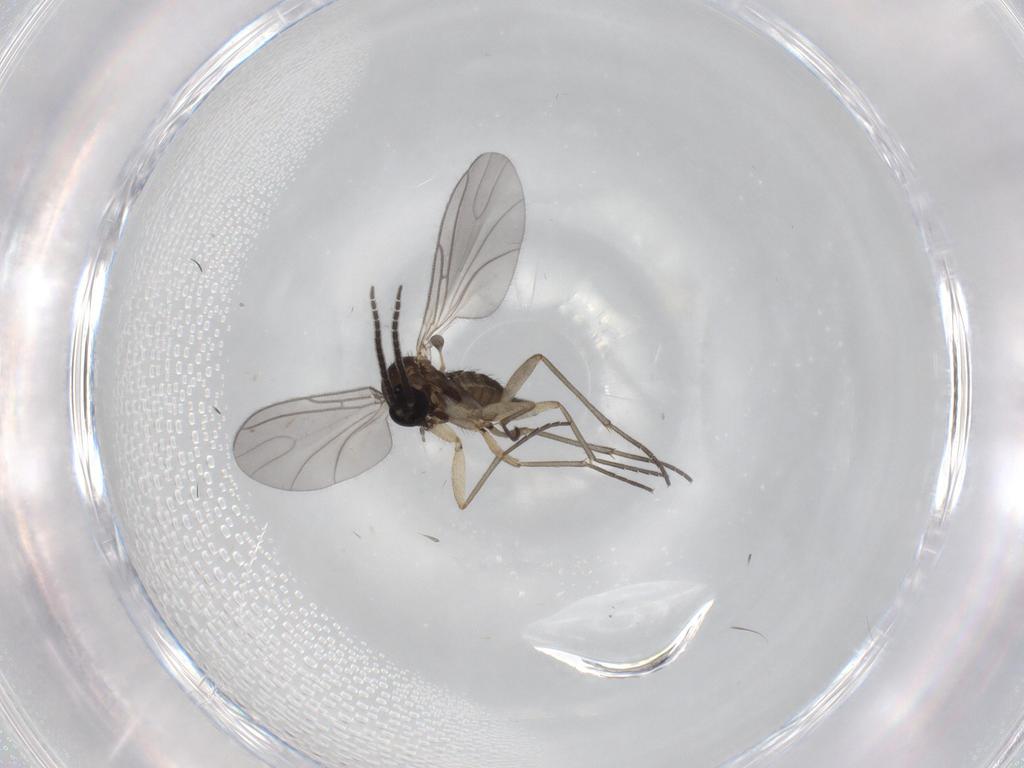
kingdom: Animalia
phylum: Arthropoda
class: Insecta
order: Diptera
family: Sciaridae
